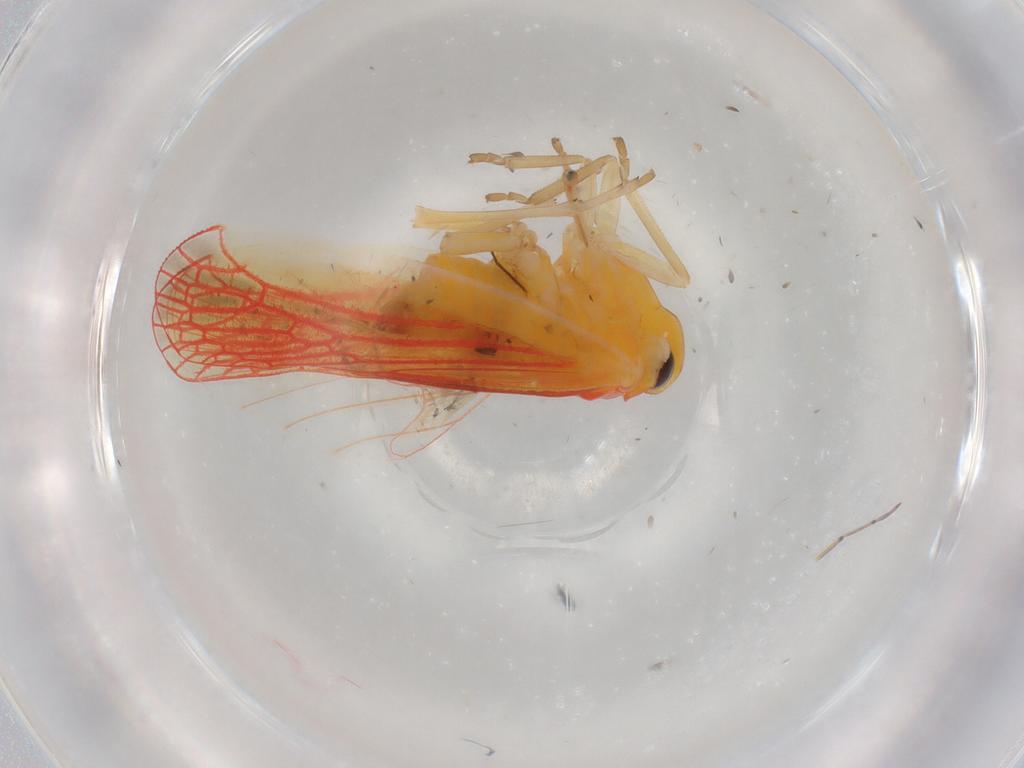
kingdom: Animalia
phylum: Arthropoda
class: Insecta
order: Hemiptera
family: Derbidae
